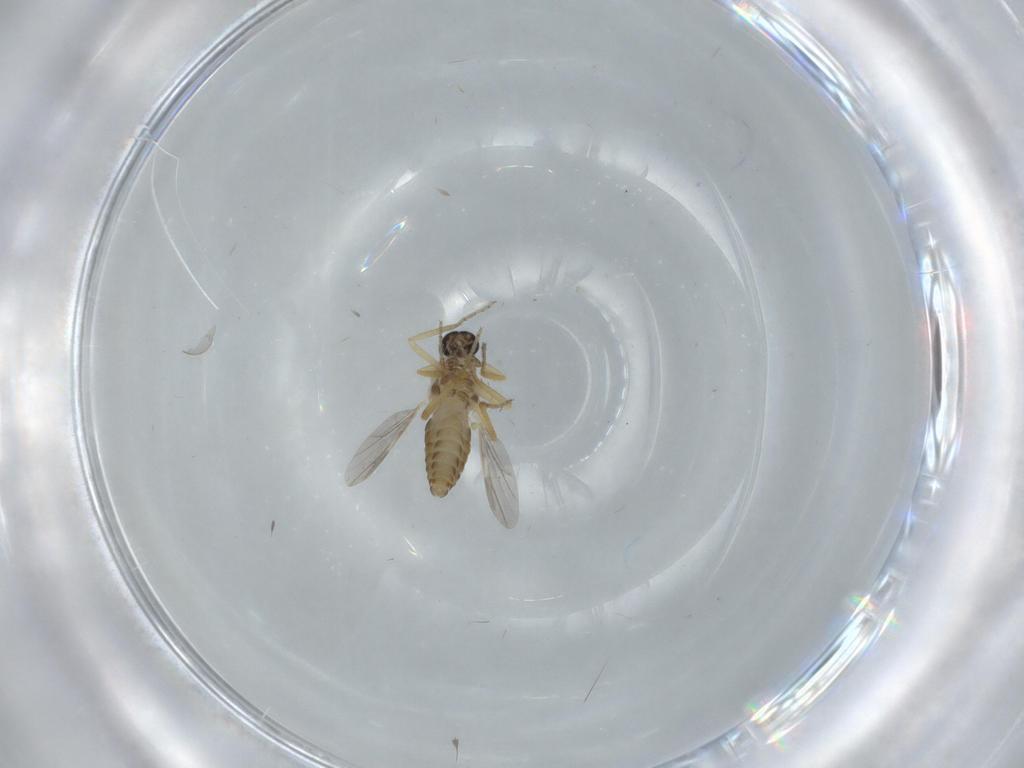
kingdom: Animalia
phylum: Arthropoda
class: Insecta
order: Diptera
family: Ceratopogonidae
